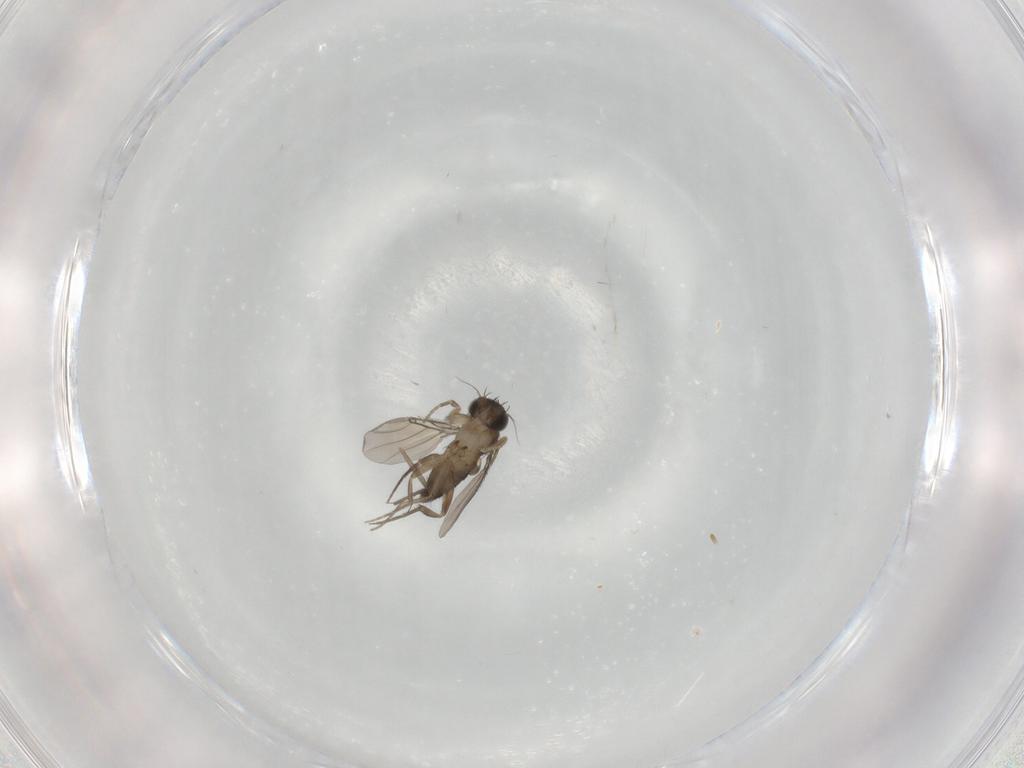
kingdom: Animalia
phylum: Arthropoda
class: Insecta
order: Diptera
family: Phoridae
